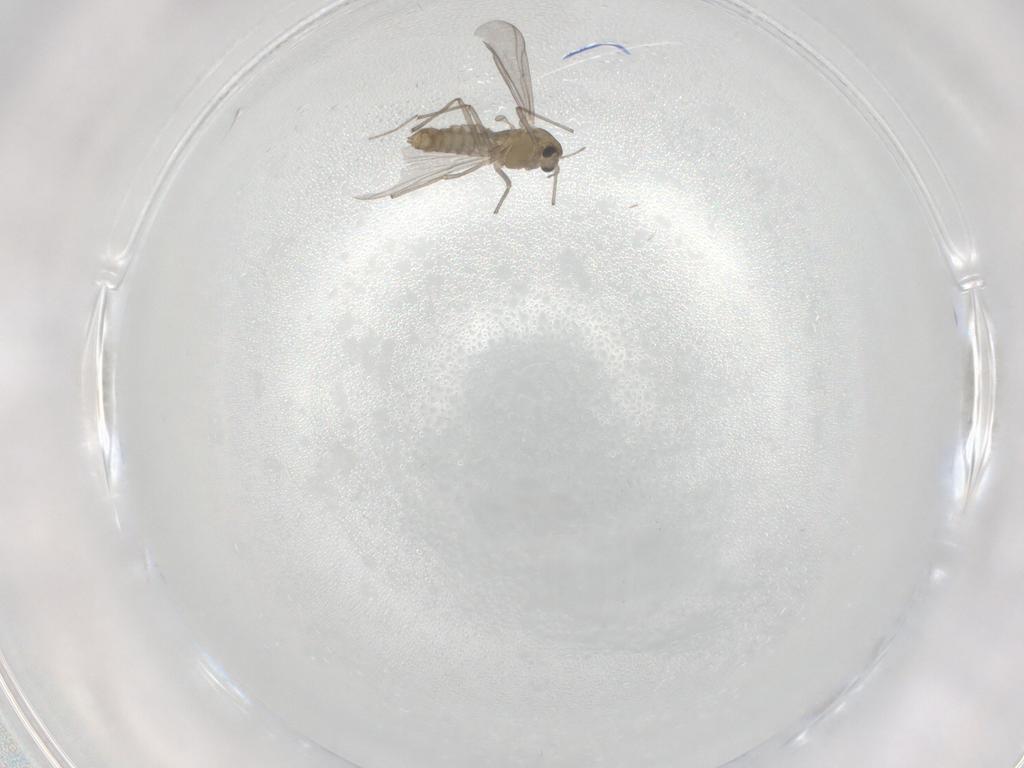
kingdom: Animalia
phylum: Arthropoda
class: Insecta
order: Diptera
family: Chironomidae
